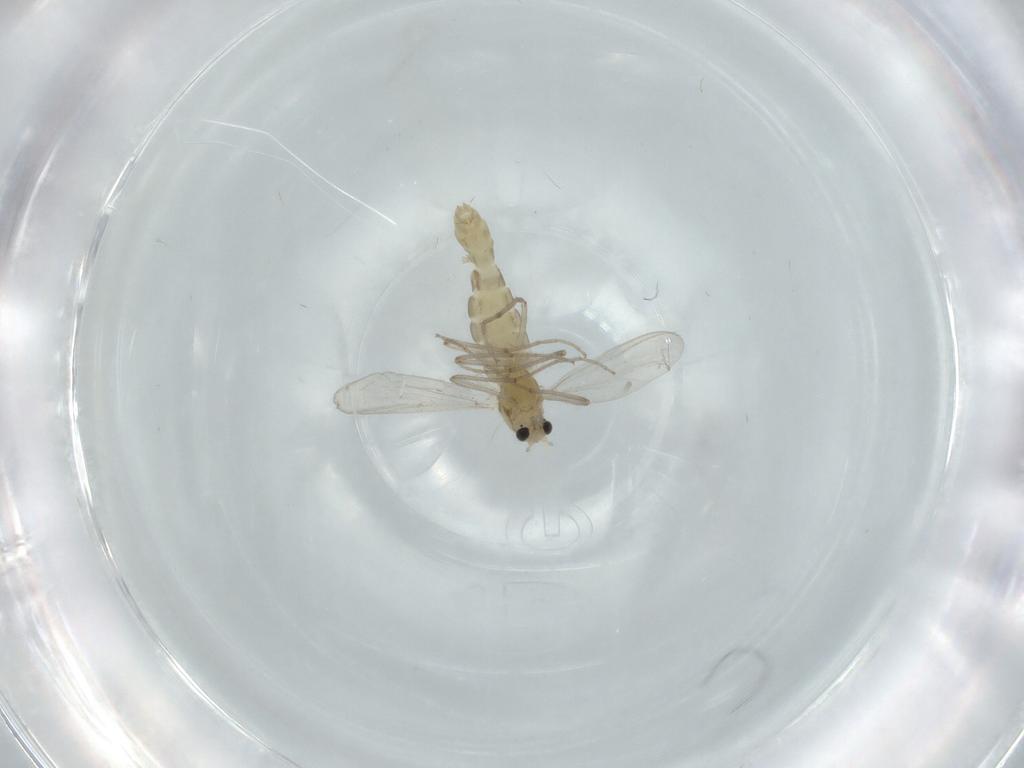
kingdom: Animalia
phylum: Arthropoda
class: Insecta
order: Diptera
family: Chironomidae
